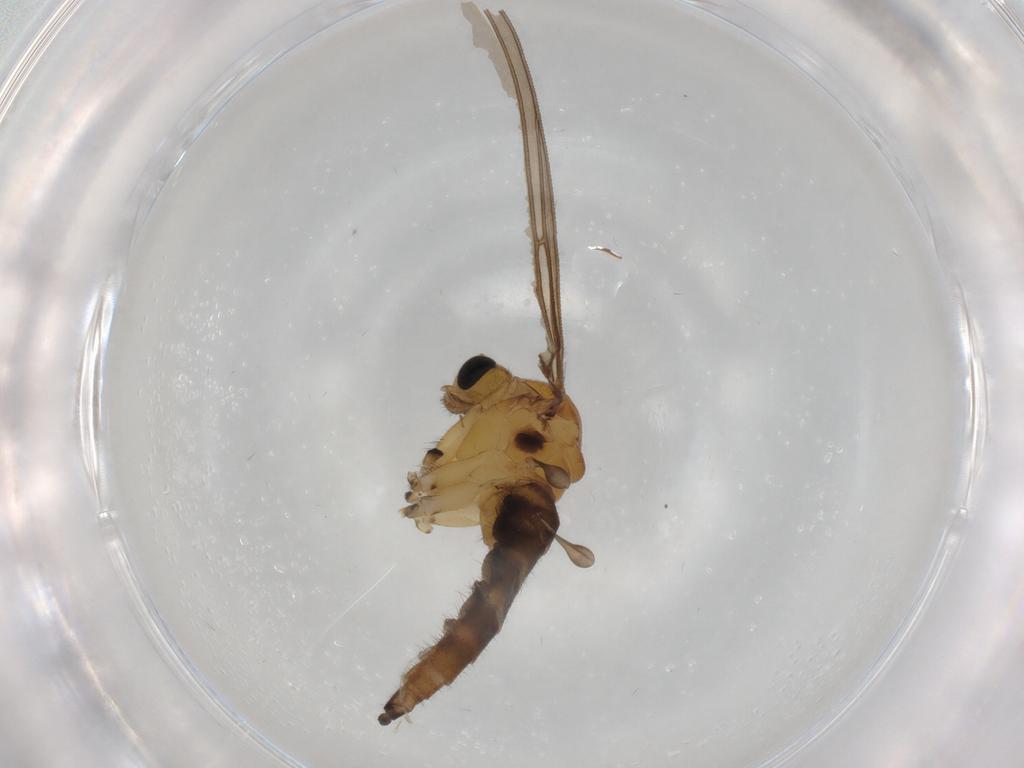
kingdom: Animalia
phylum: Arthropoda
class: Insecta
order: Diptera
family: Sciaridae
